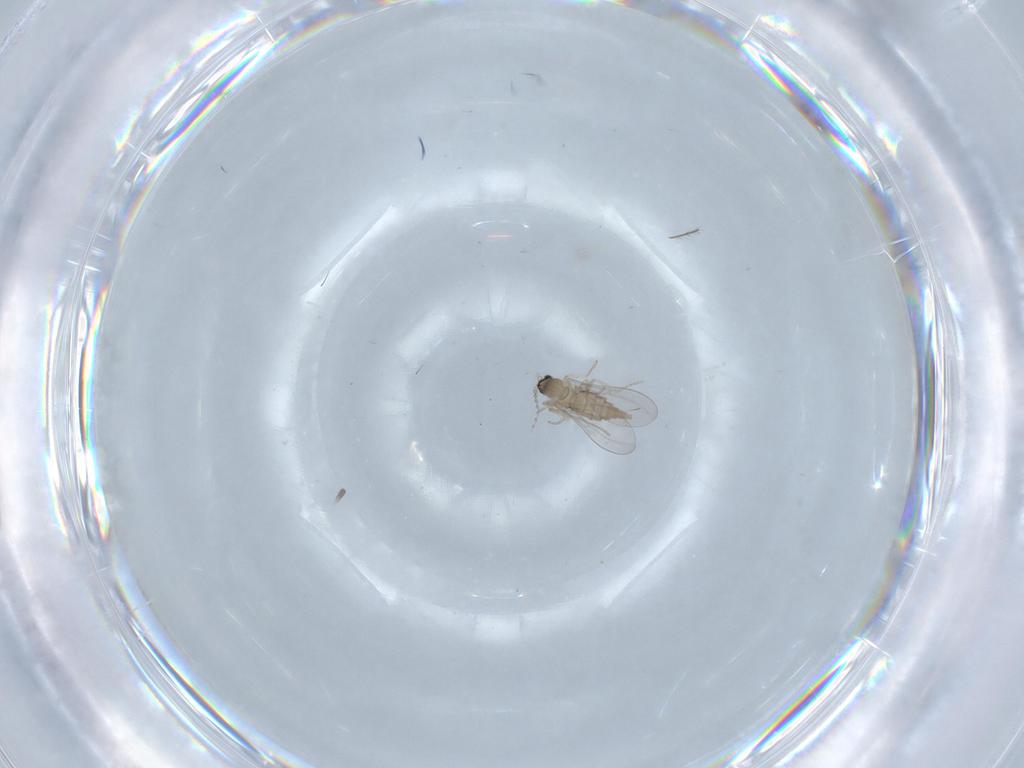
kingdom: Animalia
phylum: Arthropoda
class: Insecta
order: Diptera
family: Cecidomyiidae
